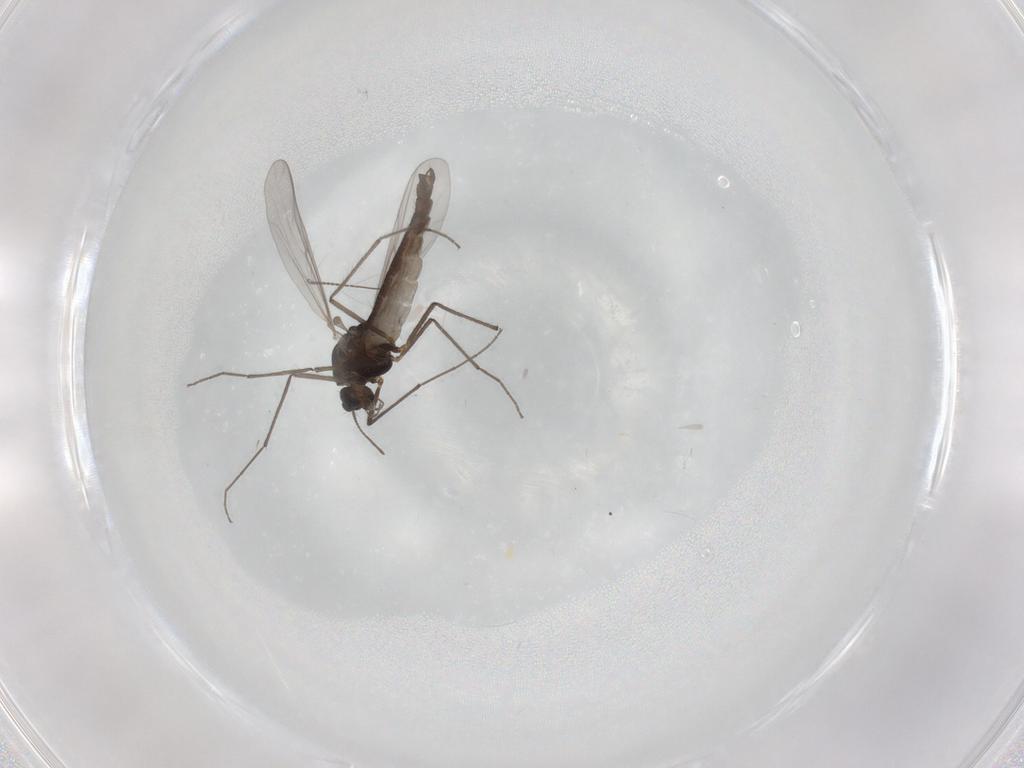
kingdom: Animalia
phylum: Arthropoda
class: Insecta
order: Diptera
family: Chironomidae
